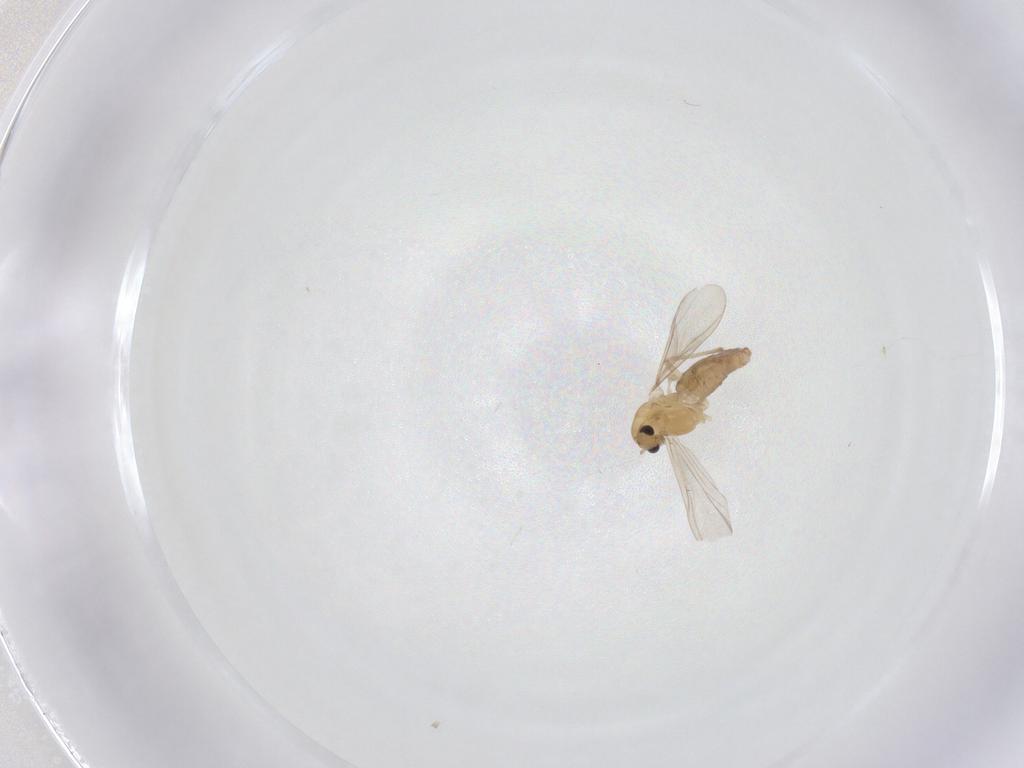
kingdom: Animalia
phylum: Arthropoda
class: Insecta
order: Diptera
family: Chironomidae
